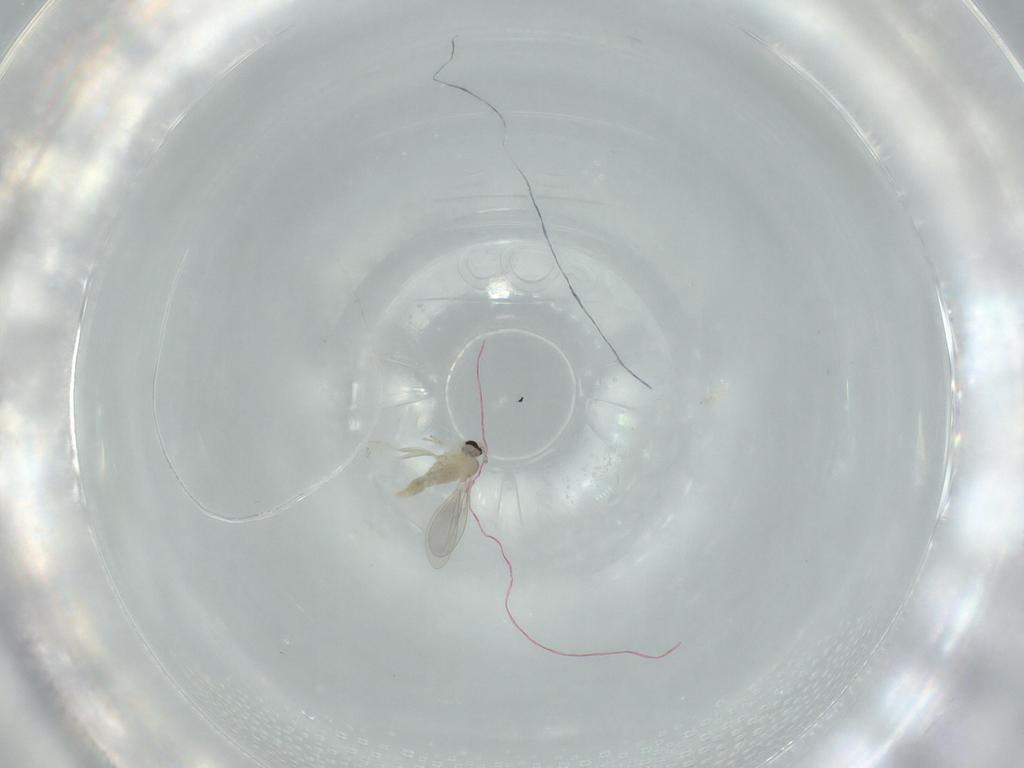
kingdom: Animalia
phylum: Arthropoda
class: Insecta
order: Diptera
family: Cecidomyiidae
